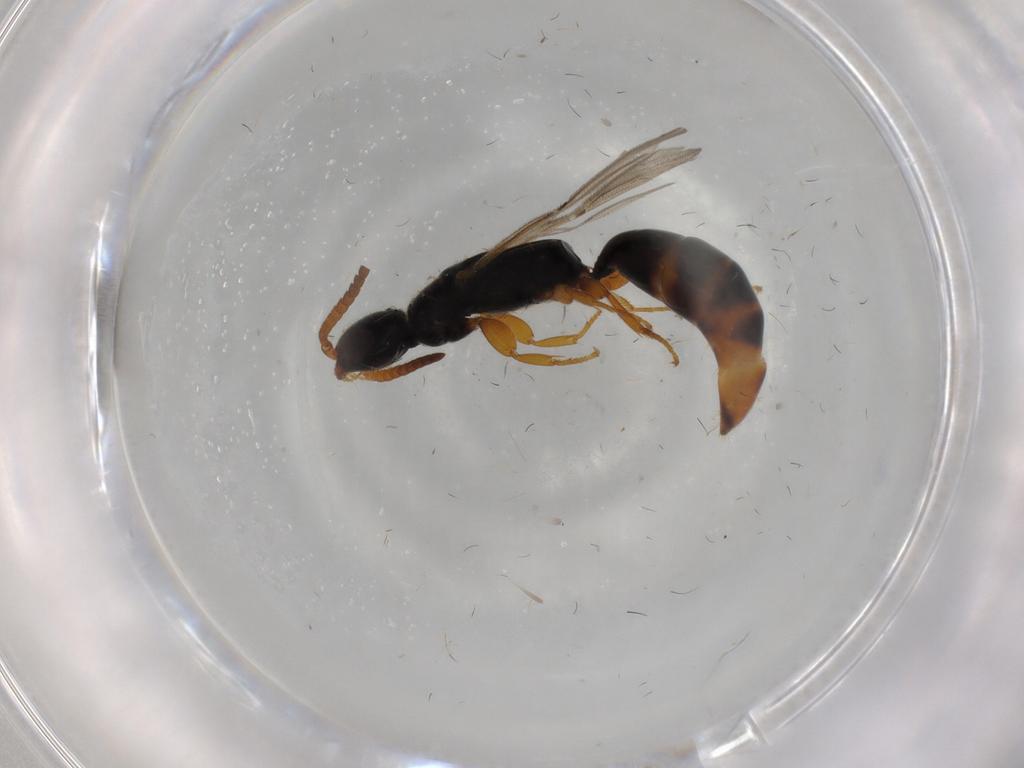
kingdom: Animalia
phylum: Arthropoda
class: Insecta
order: Hymenoptera
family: Bethylidae
